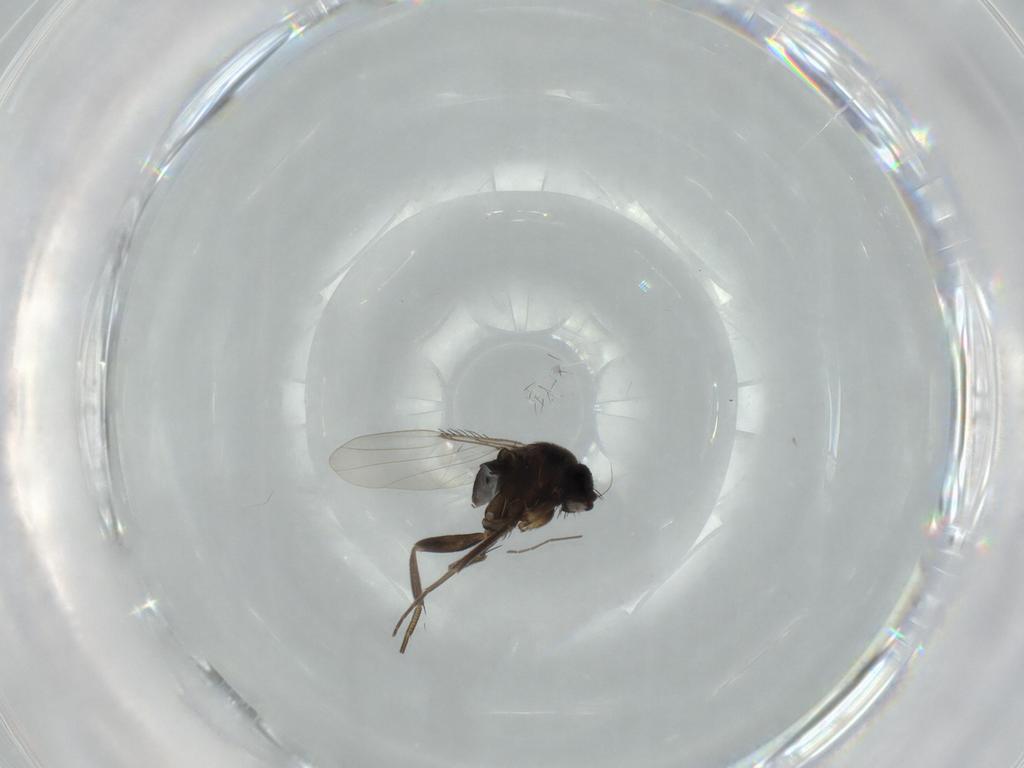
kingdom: Animalia
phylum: Arthropoda
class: Insecta
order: Diptera
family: Phoridae
